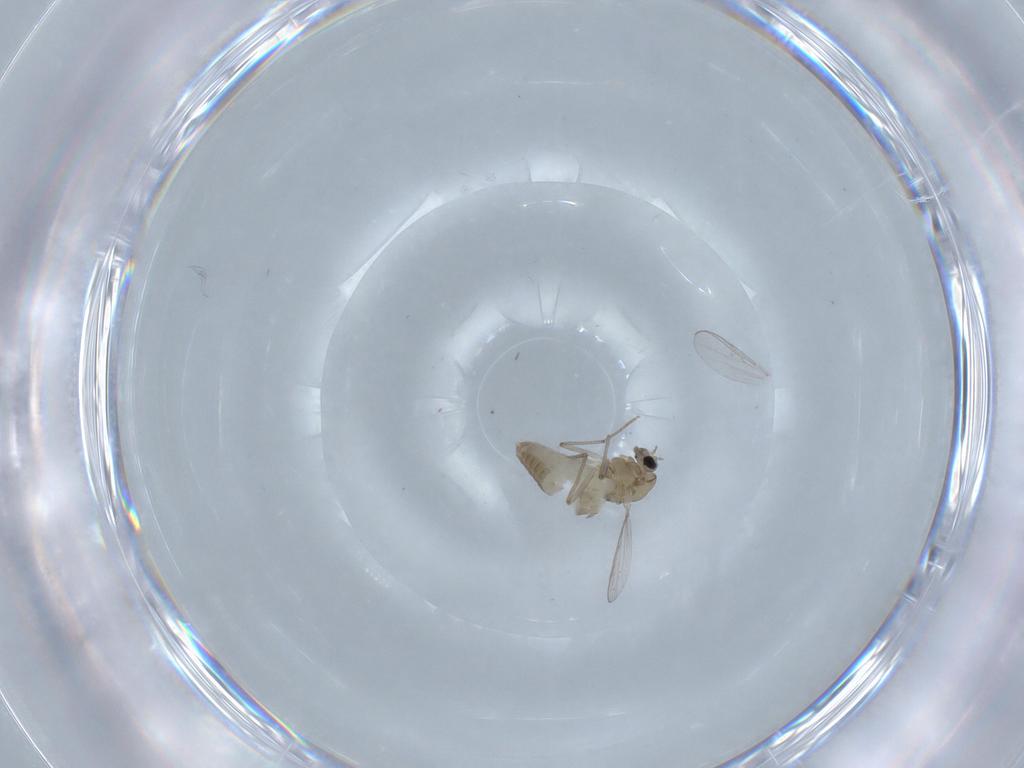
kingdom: Animalia
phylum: Arthropoda
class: Insecta
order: Diptera
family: Chironomidae
